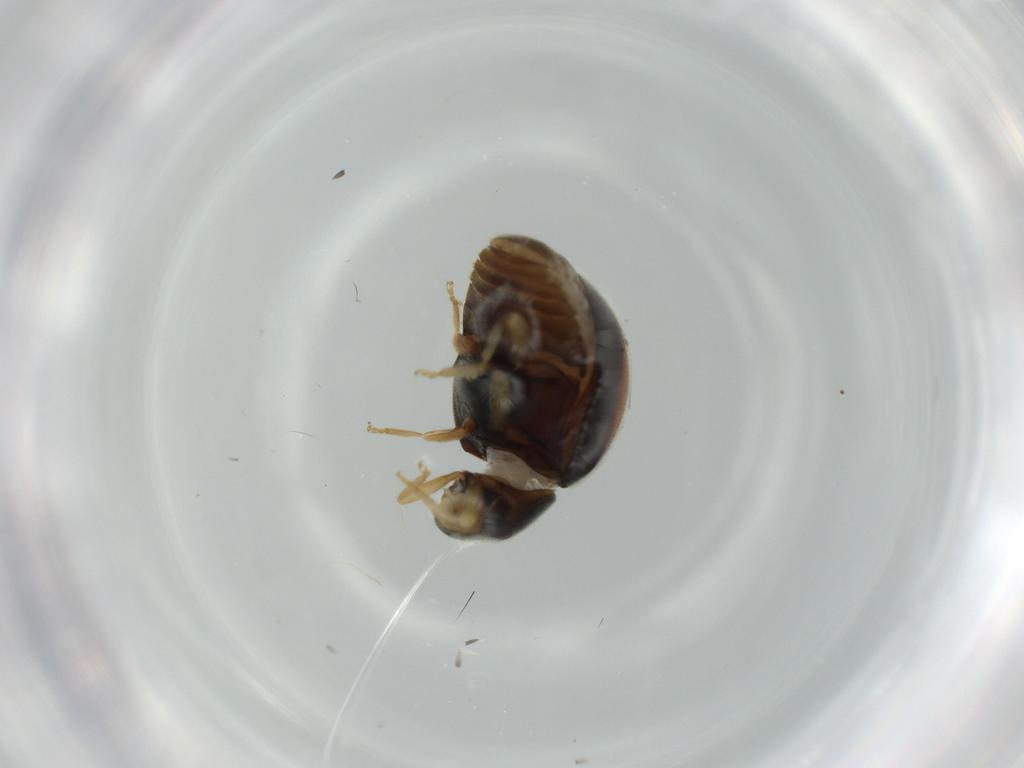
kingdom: Animalia
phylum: Arthropoda
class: Insecta
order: Coleoptera
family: Coccinellidae
